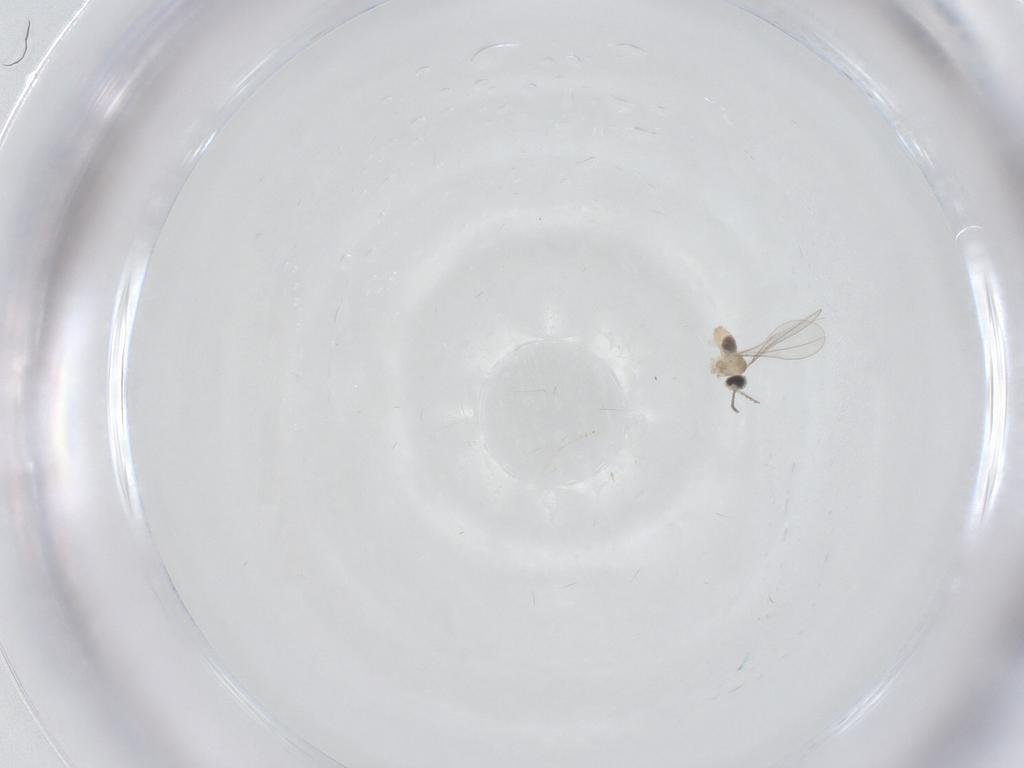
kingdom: Animalia
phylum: Arthropoda
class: Insecta
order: Diptera
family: Cecidomyiidae
